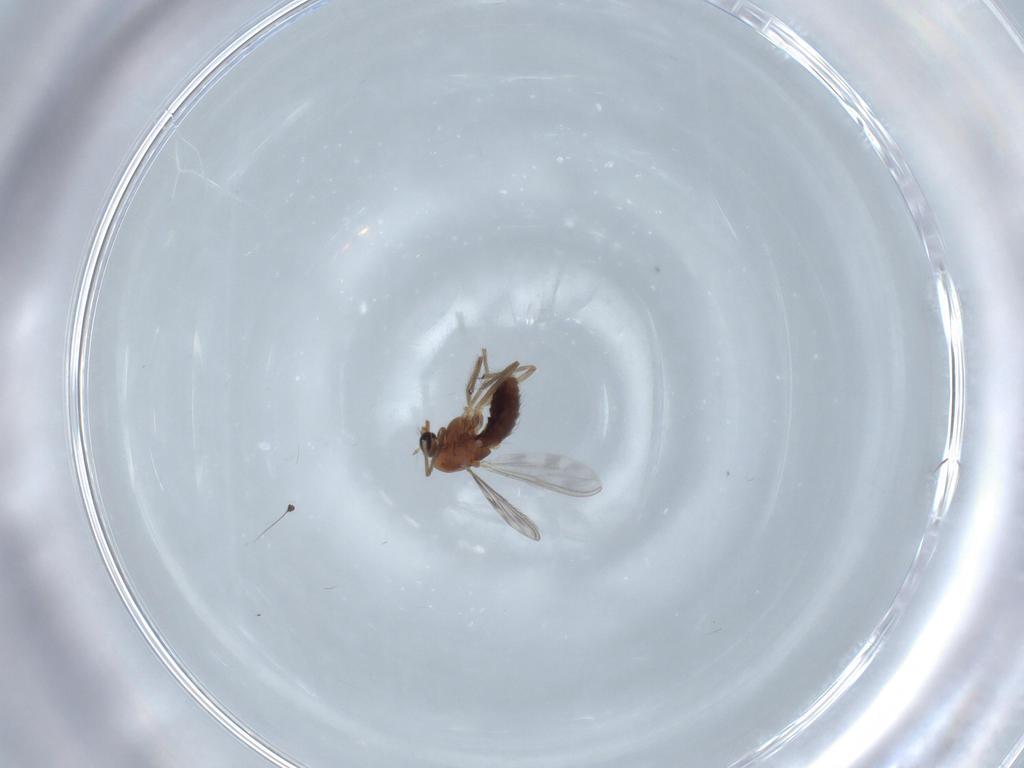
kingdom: Animalia
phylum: Arthropoda
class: Insecta
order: Diptera
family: Chironomidae
